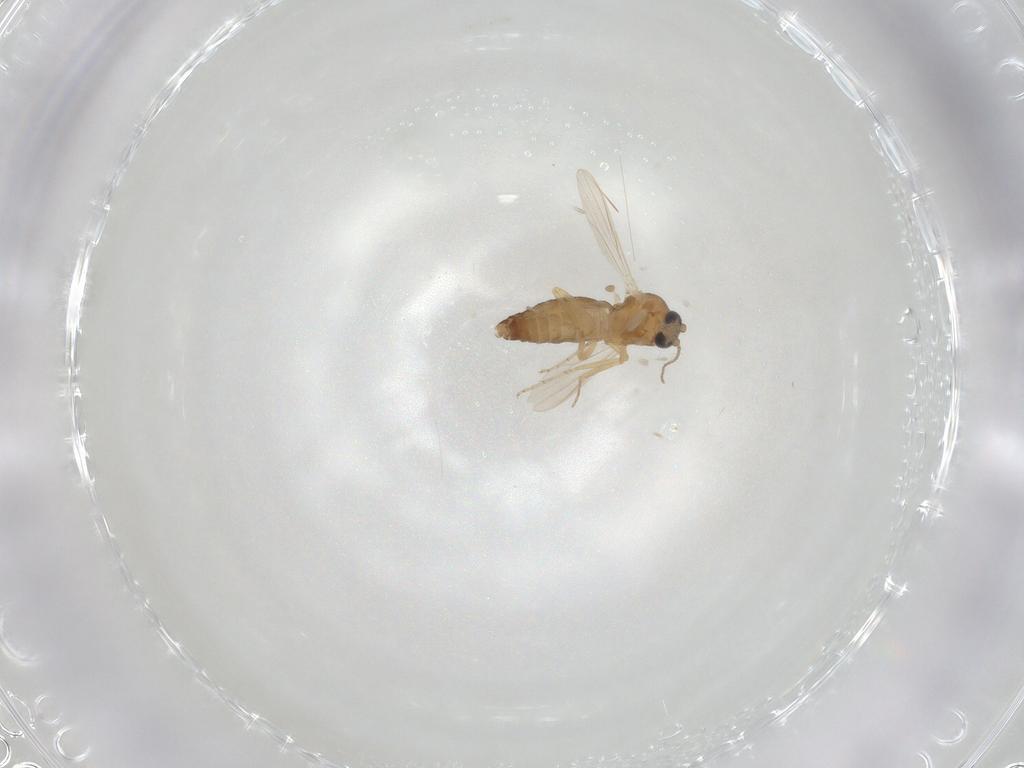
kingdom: Animalia
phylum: Arthropoda
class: Insecta
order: Diptera
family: Ceratopogonidae
